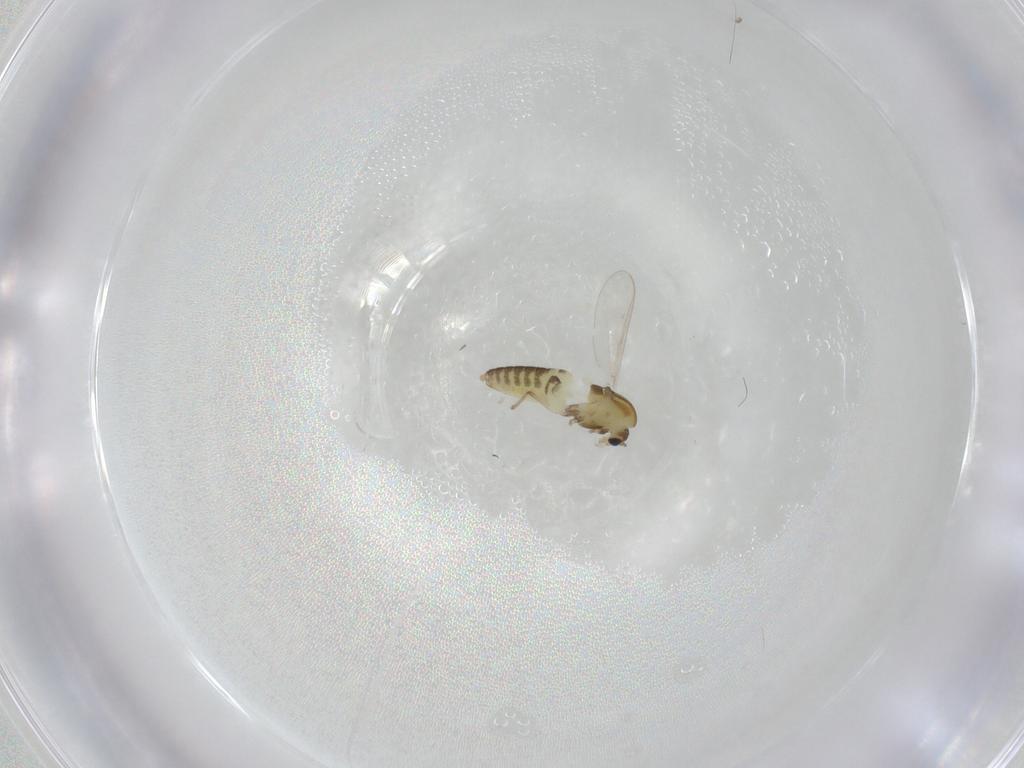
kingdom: Animalia
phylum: Arthropoda
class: Insecta
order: Diptera
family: Chironomidae
